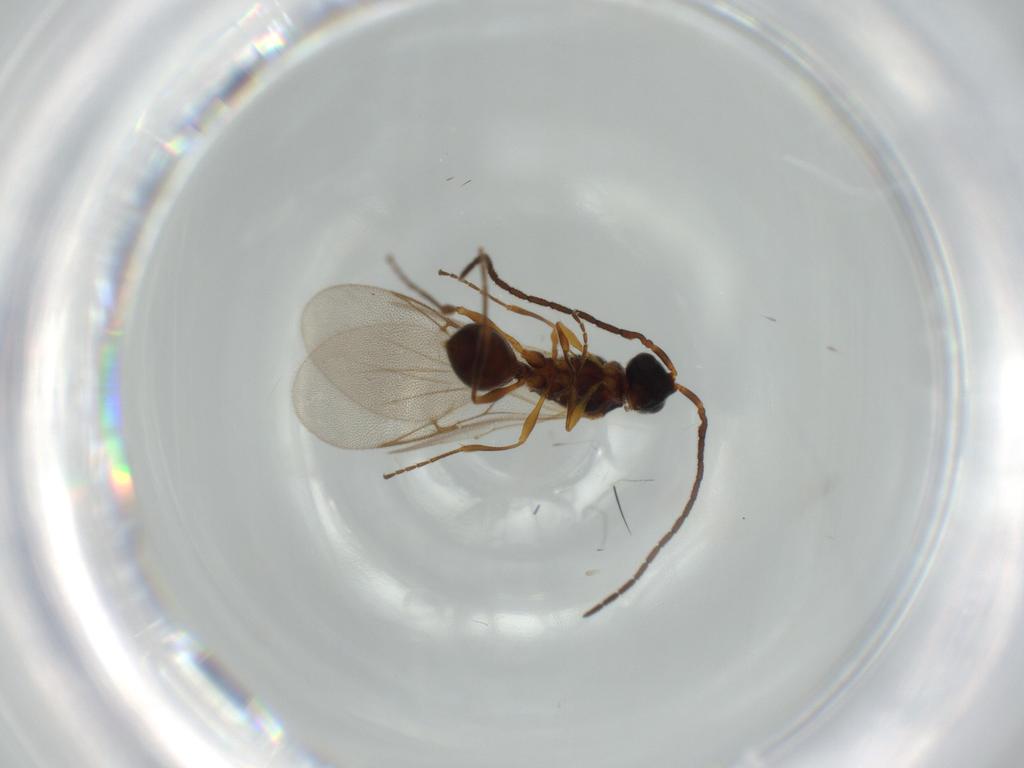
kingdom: Animalia
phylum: Arthropoda
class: Insecta
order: Hymenoptera
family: Diapriidae
